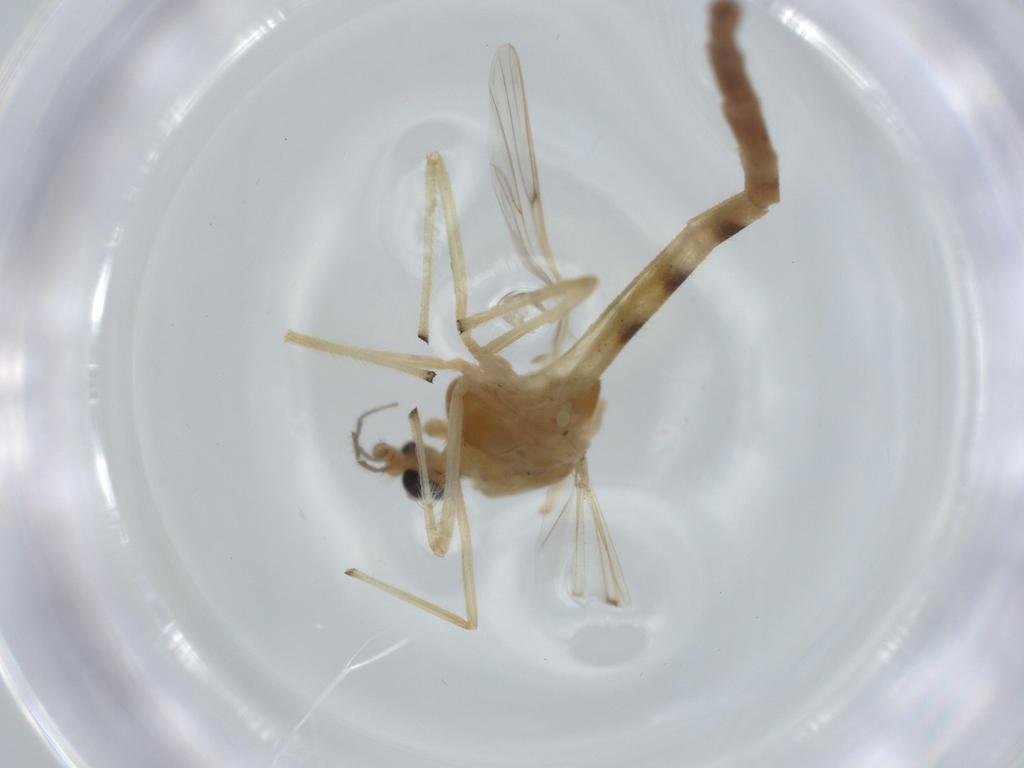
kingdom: Animalia
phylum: Arthropoda
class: Insecta
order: Diptera
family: Chironomidae
